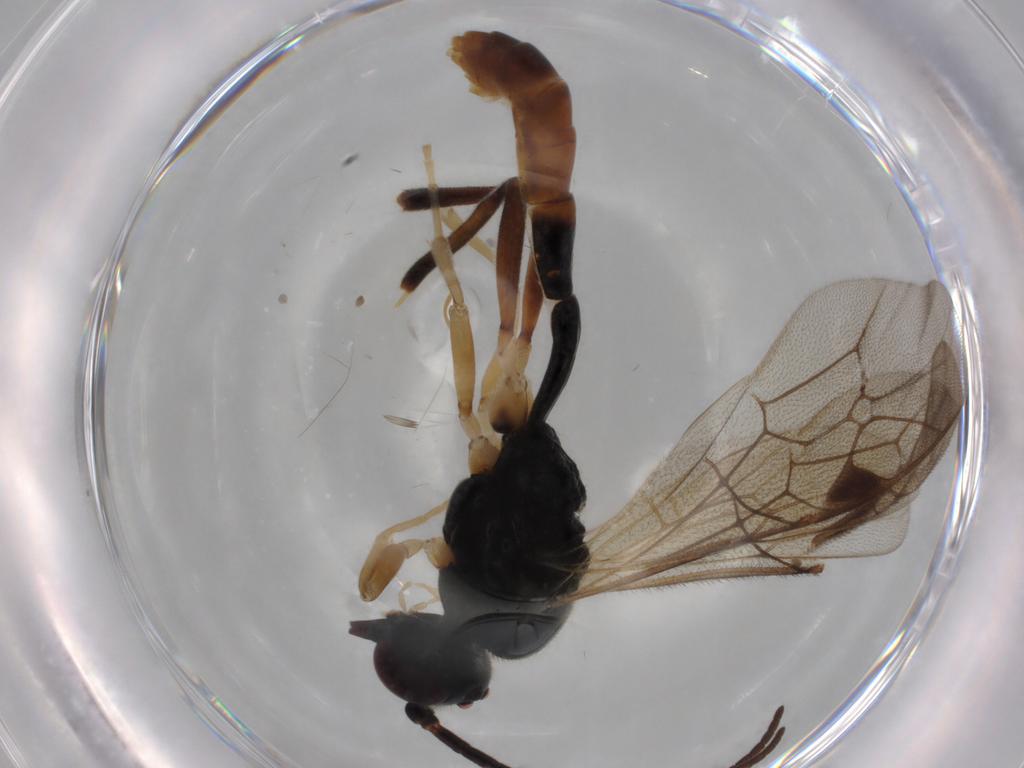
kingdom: Animalia
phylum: Arthropoda
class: Insecta
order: Hymenoptera
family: Ichneumonidae
